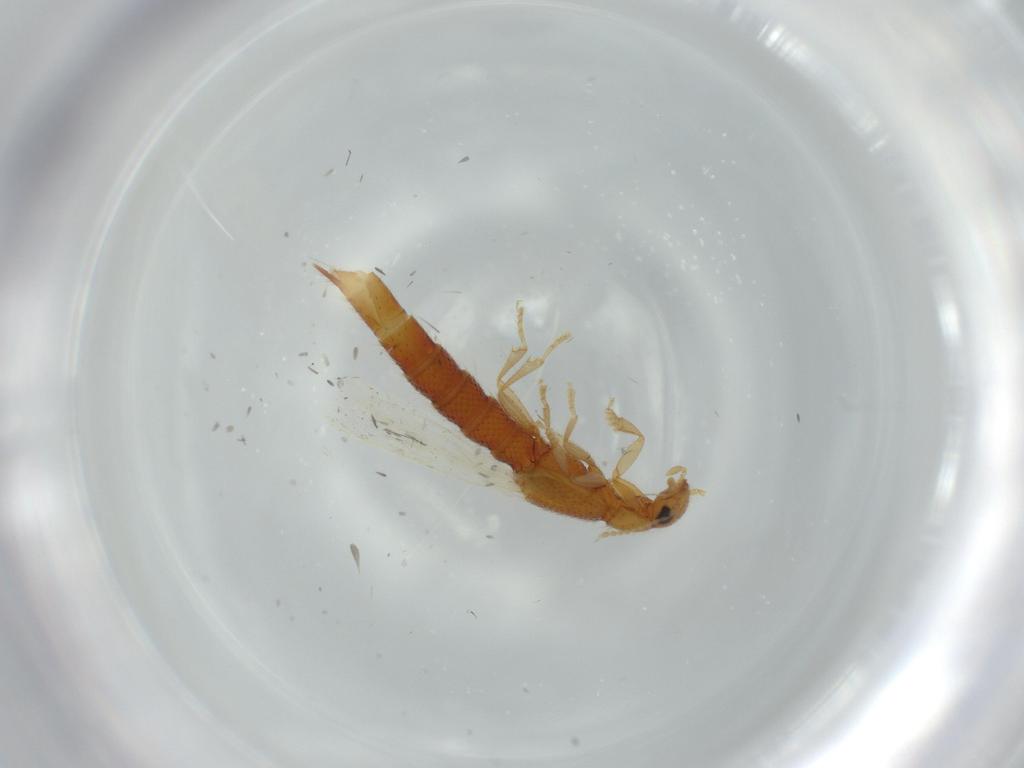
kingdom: Animalia
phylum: Arthropoda
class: Insecta
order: Coleoptera
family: Staphylinidae
